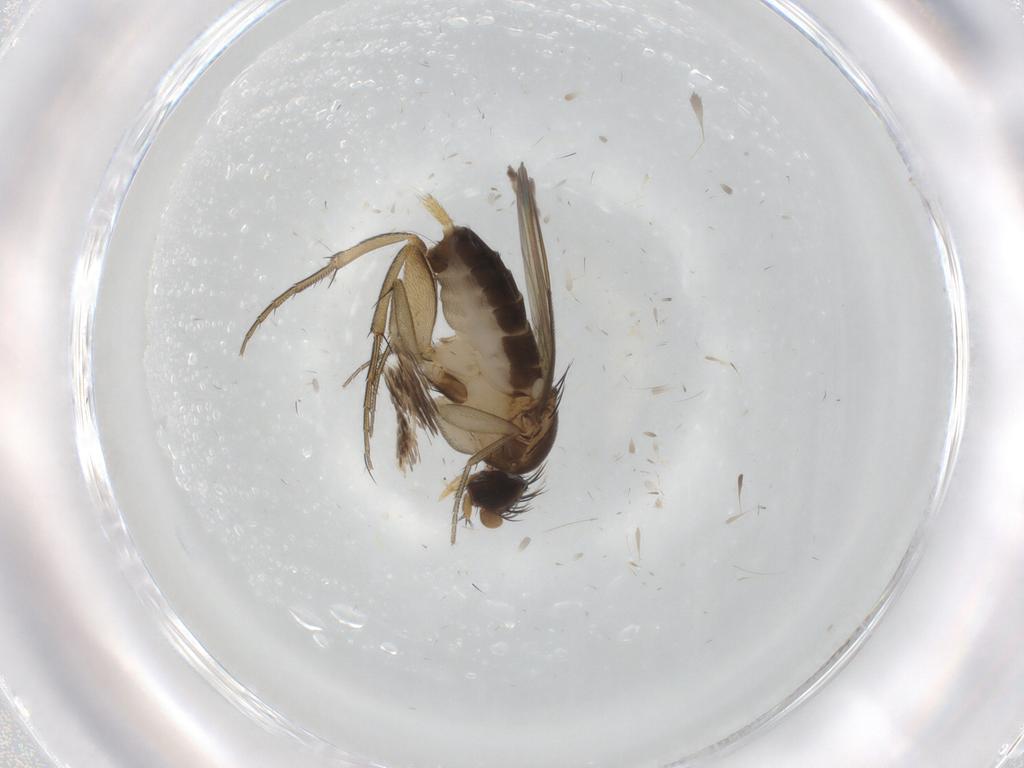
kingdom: Animalia
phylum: Arthropoda
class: Insecta
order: Diptera
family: Phoridae
